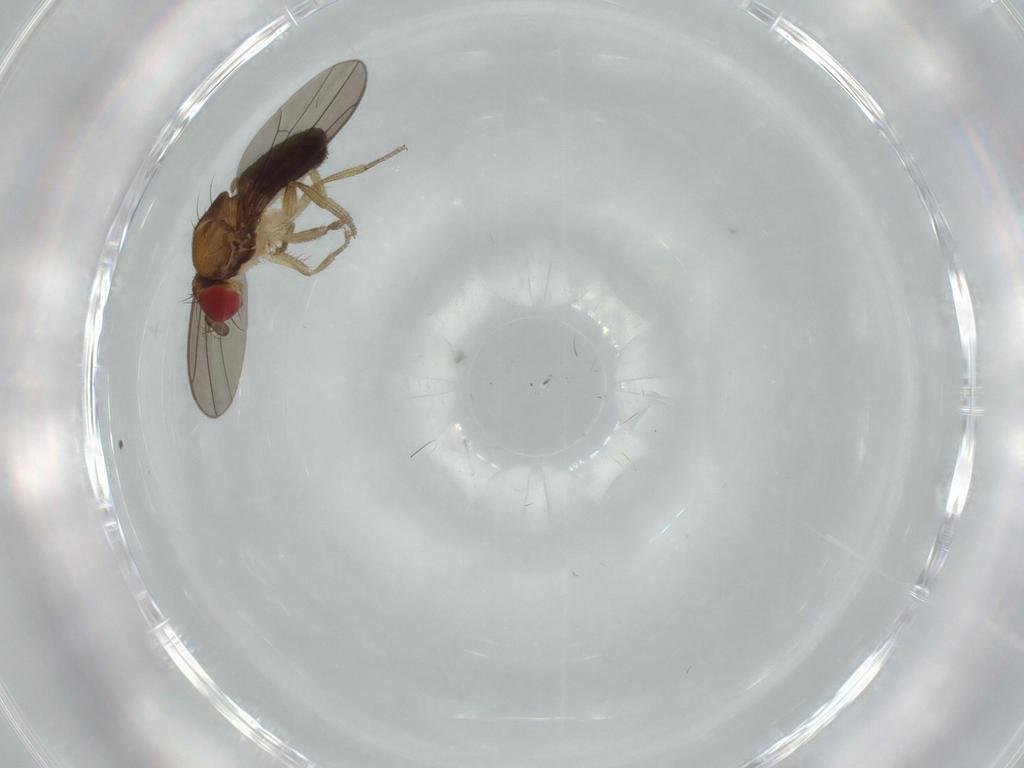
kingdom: Animalia
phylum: Arthropoda
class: Insecta
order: Diptera
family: Drosophilidae
